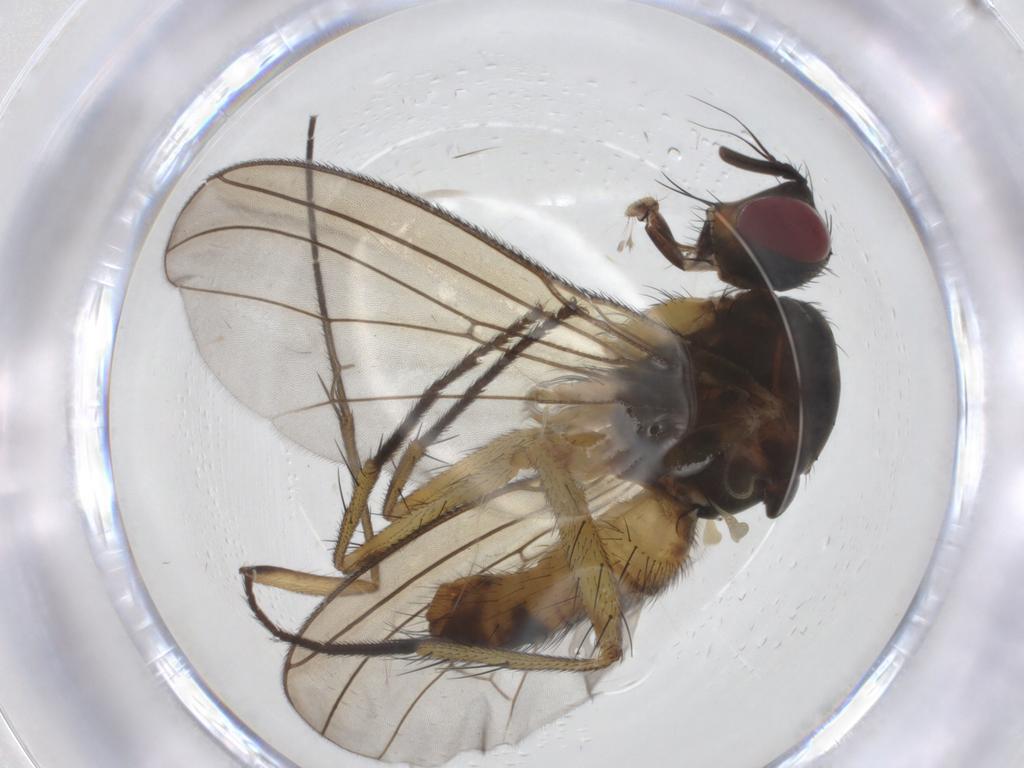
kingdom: Animalia
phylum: Arthropoda
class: Insecta
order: Diptera
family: Muscidae
